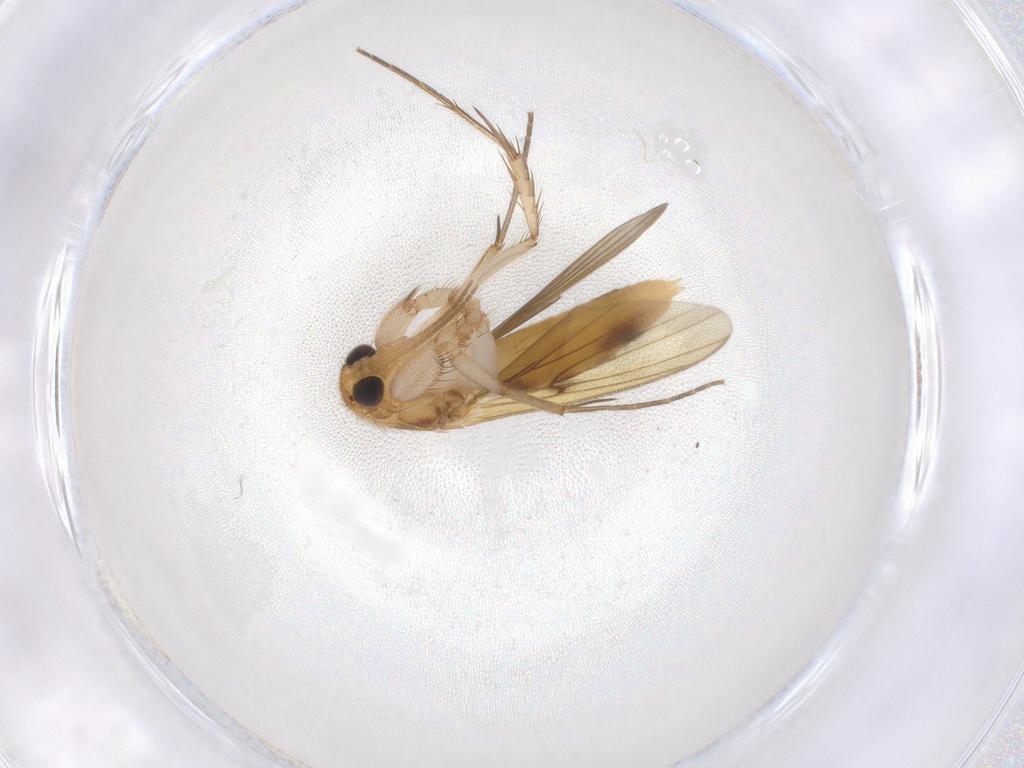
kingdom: Animalia
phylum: Arthropoda
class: Insecta
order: Diptera
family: Mycetophilidae
